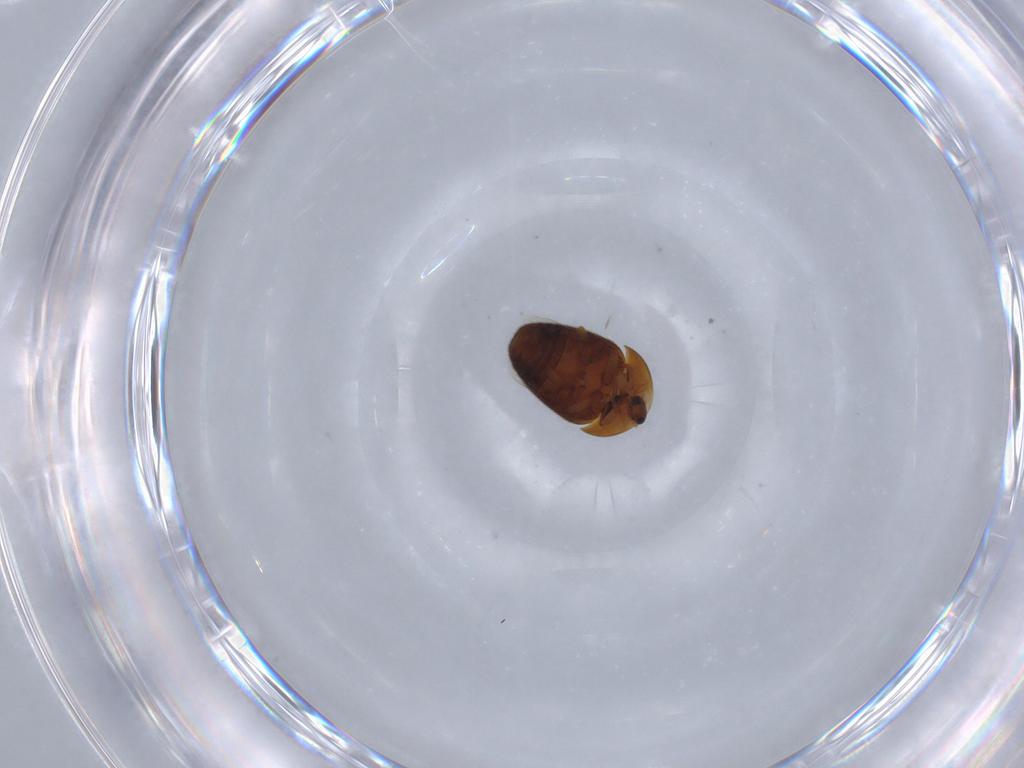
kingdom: Animalia
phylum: Arthropoda
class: Insecta
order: Coleoptera
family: Corylophidae
